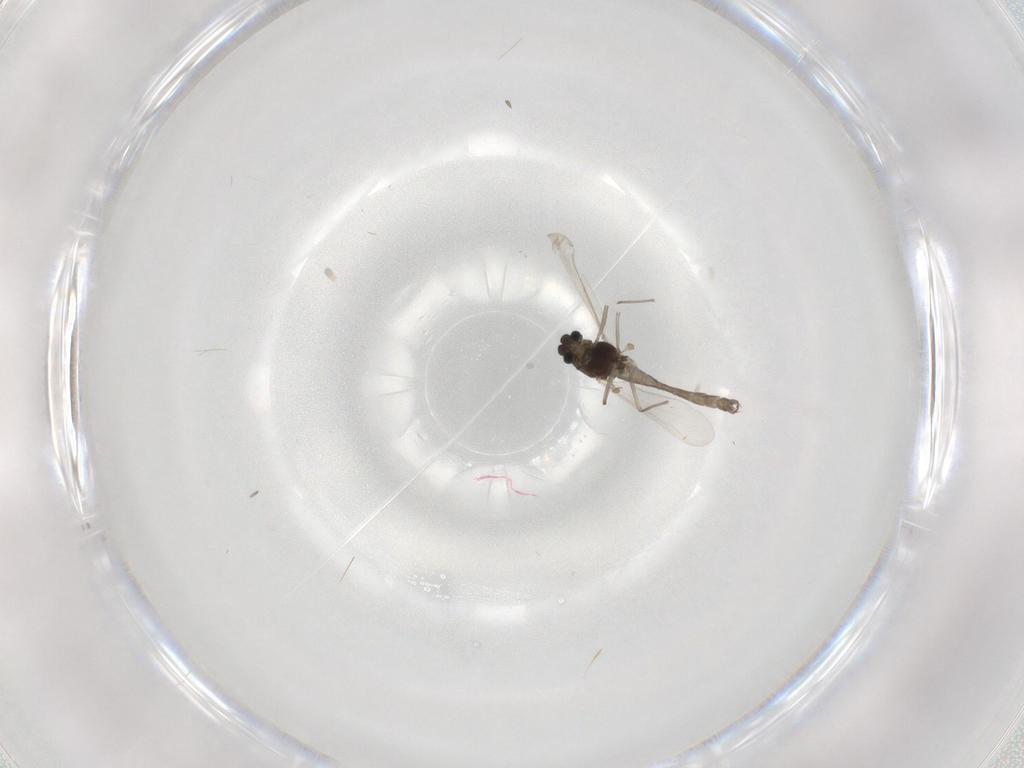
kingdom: Animalia
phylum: Arthropoda
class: Insecta
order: Diptera
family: Chironomidae
